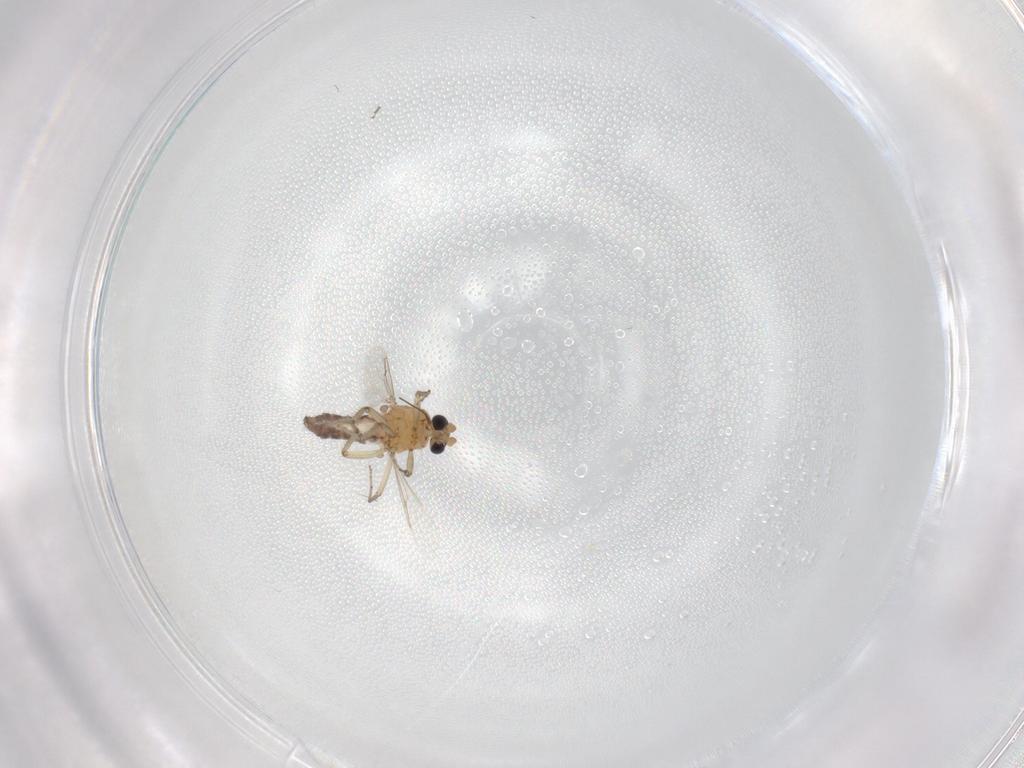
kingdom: Animalia
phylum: Arthropoda
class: Insecta
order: Diptera
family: Ceratopogonidae
